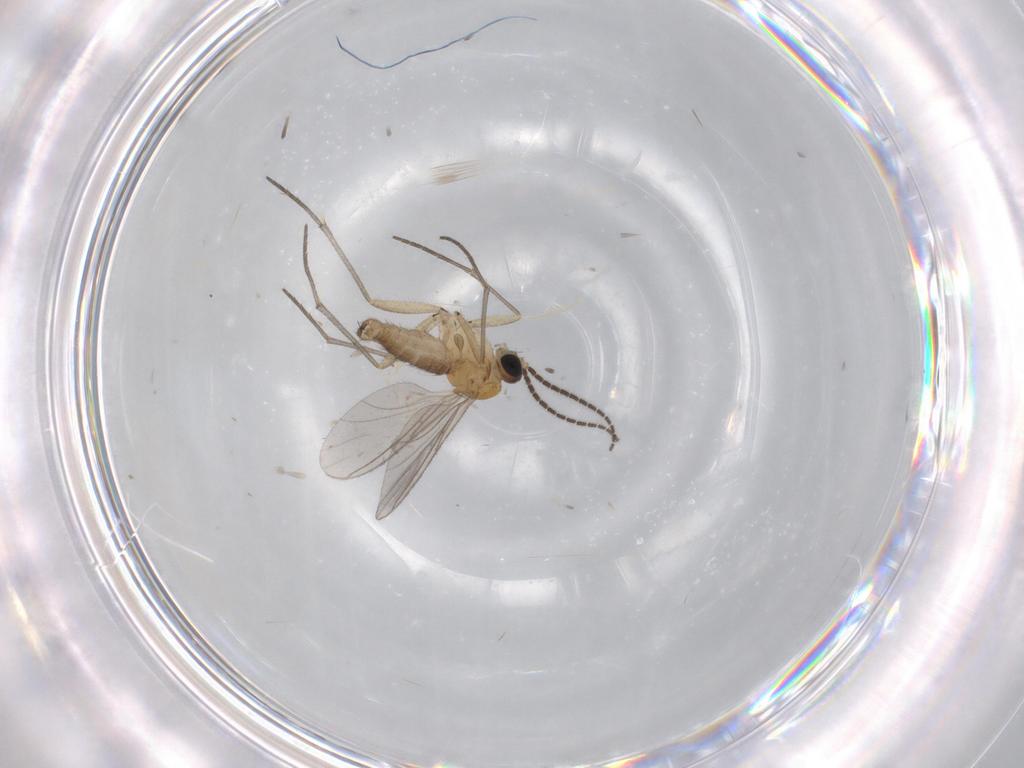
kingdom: Animalia
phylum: Arthropoda
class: Insecta
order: Diptera
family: Sciaridae
